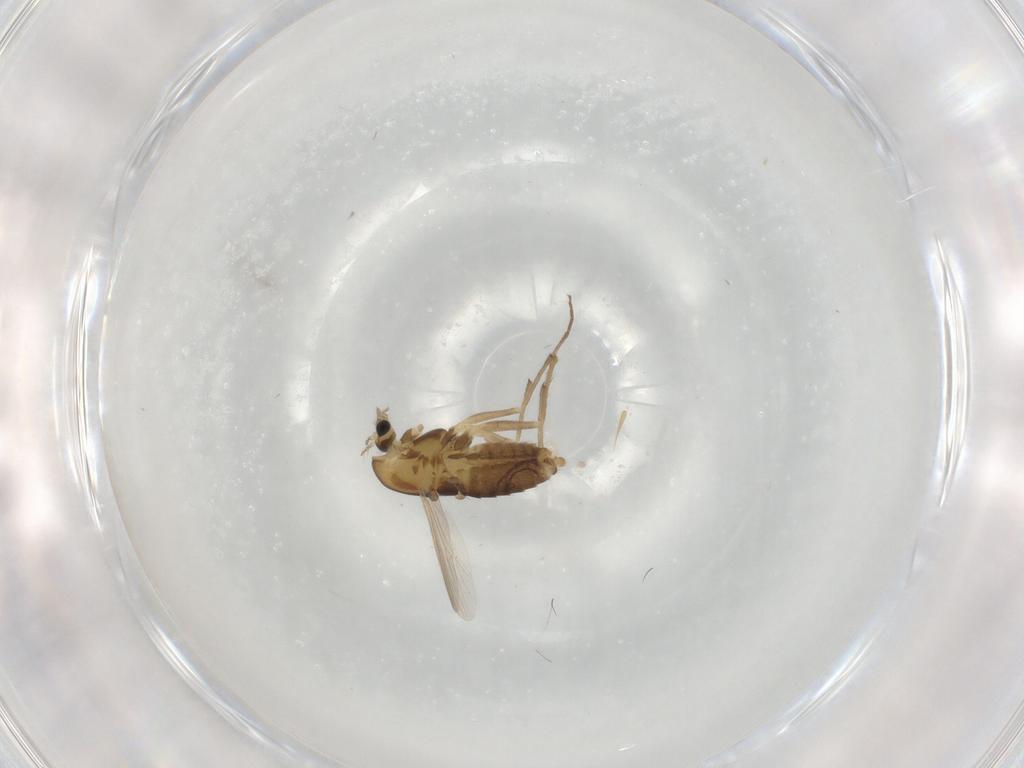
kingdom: Animalia
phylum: Arthropoda
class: Insecta
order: Diptera
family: Chironomidae
